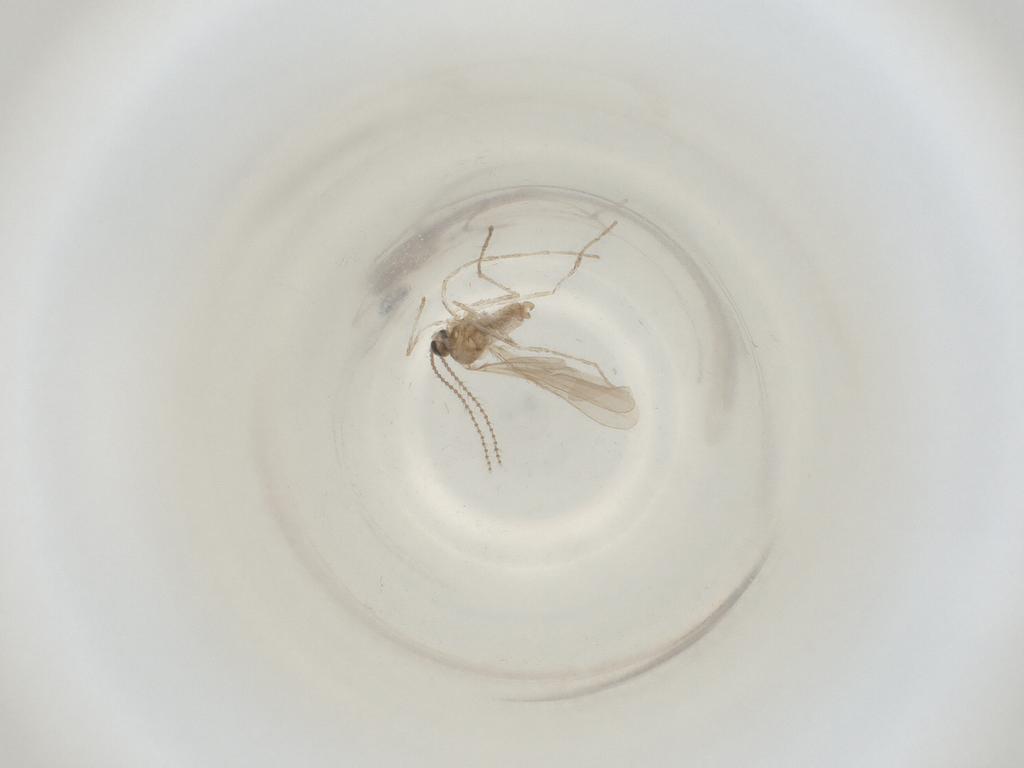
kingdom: Animalia
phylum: Arthropoda
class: Insecta
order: Diptera
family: Cecidomyiidae
